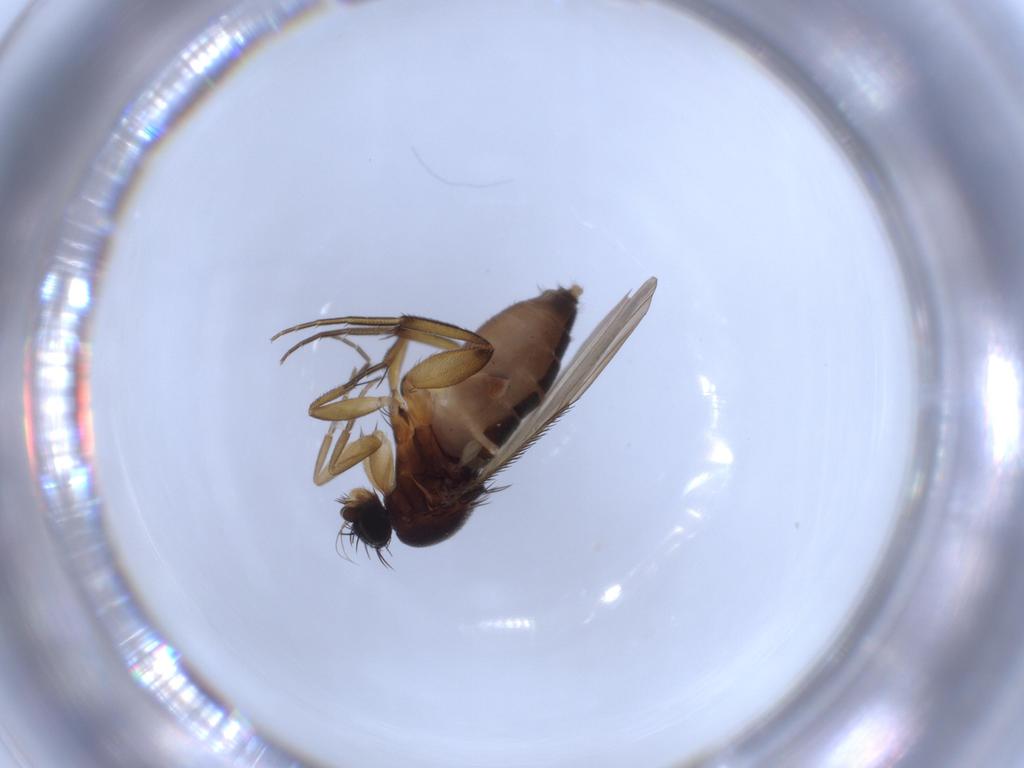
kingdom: Animalia
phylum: Arthropoda
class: Insecta
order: Diptera
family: Phoridae
